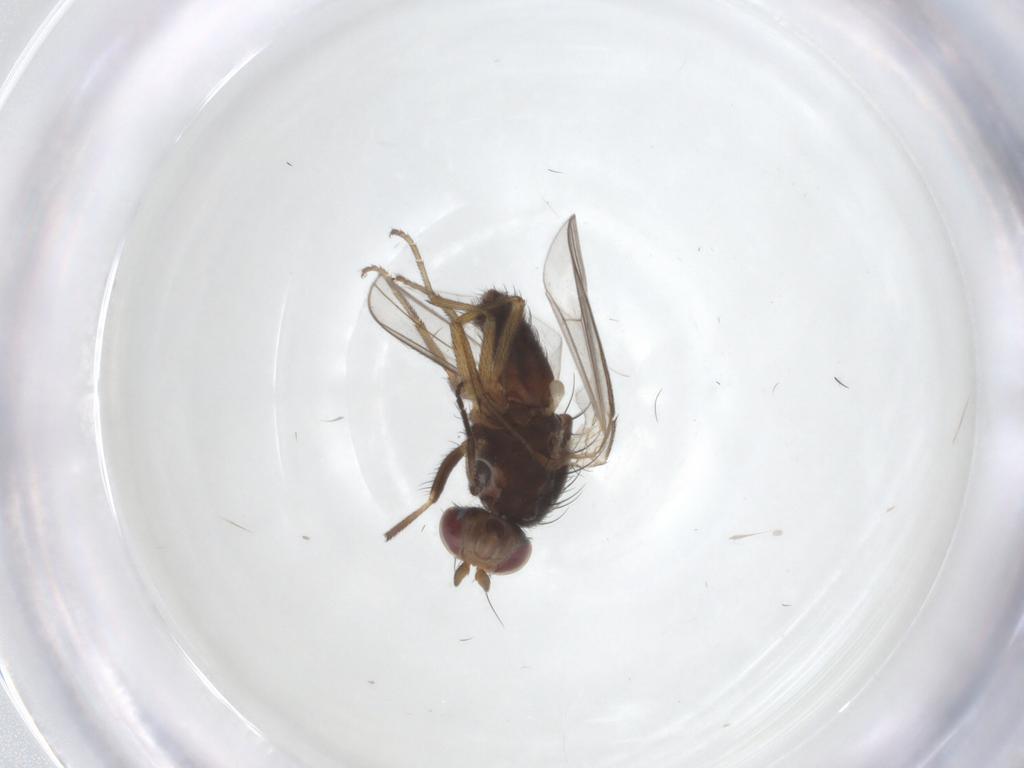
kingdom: Animalia
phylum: Arthropoda
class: Insecta
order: Diptera
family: Heleomyzidae
